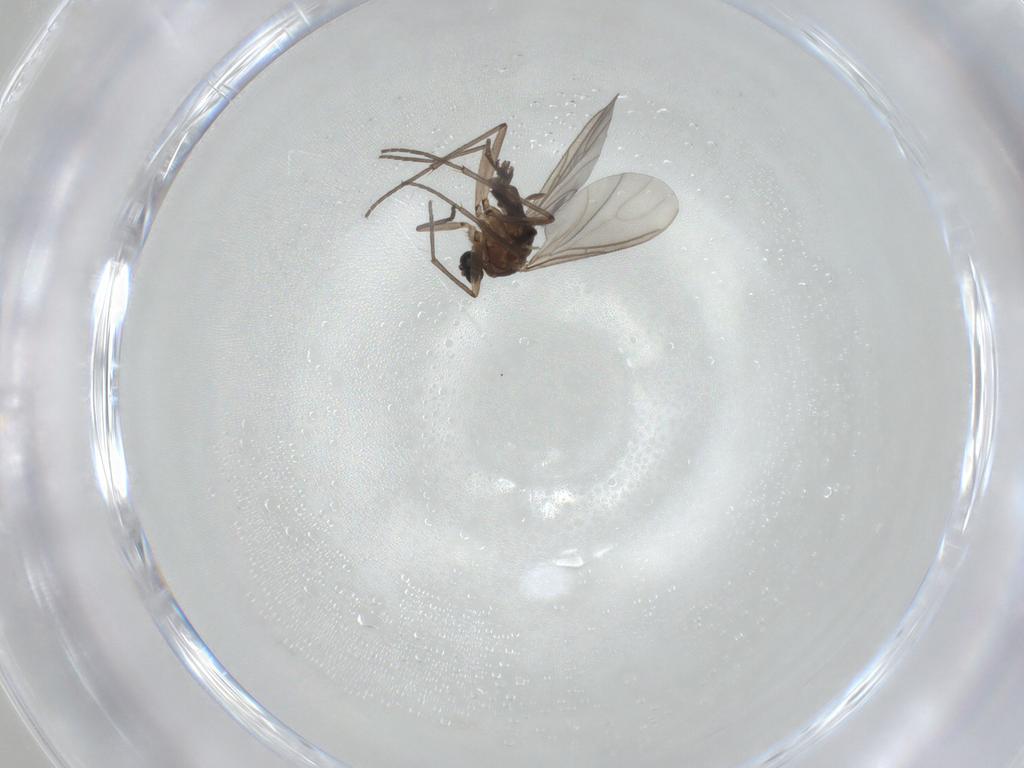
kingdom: Animalia
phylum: Arthropoda
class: Insecta
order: Diptera
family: Sciaridae
